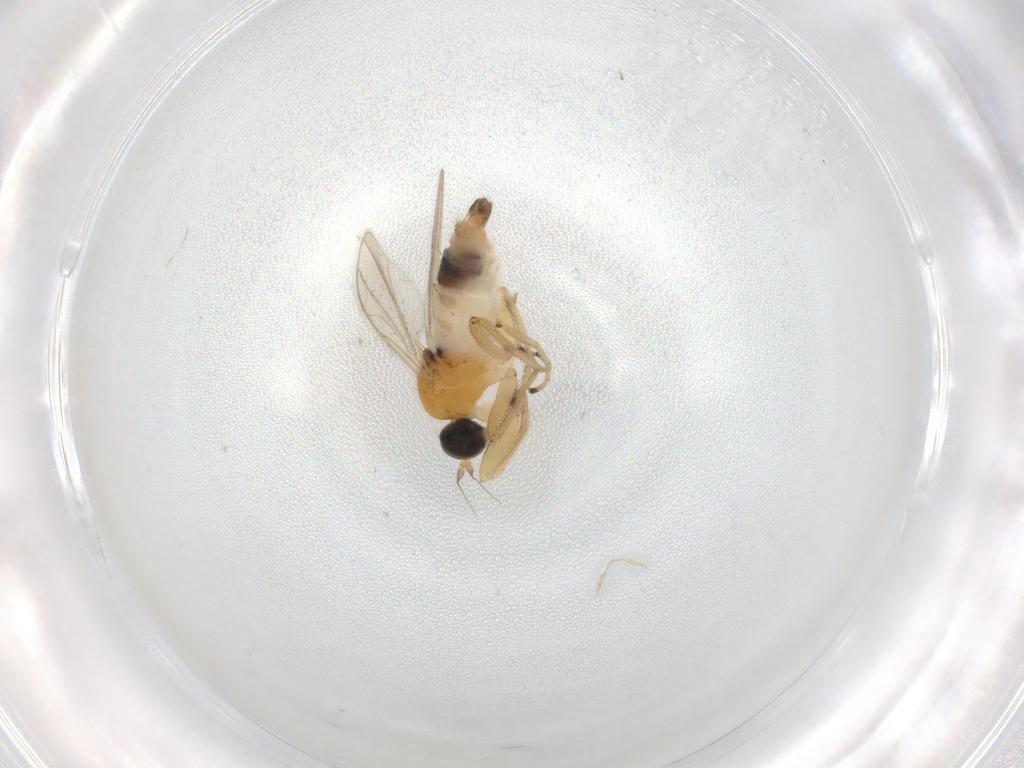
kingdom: Animalia
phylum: Arthropoda
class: Insecta
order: Diptera
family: Hybotidae
